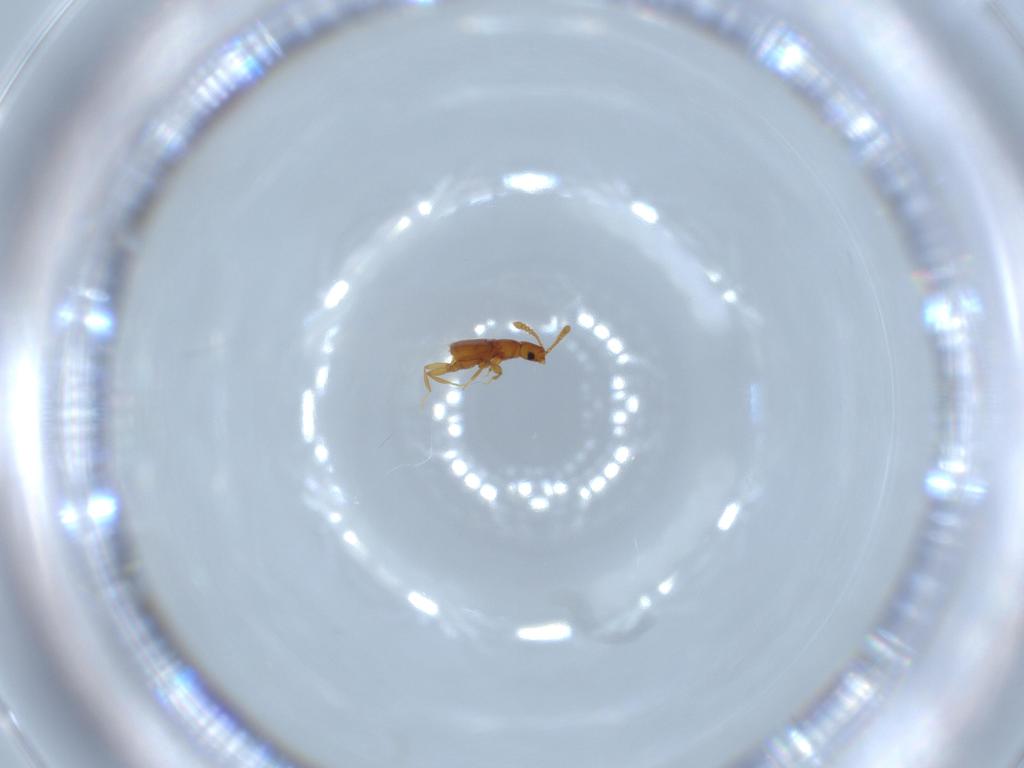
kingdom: Animalia
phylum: Arthropoda
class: Insecta
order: Coleoptera
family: Staphylinidae
